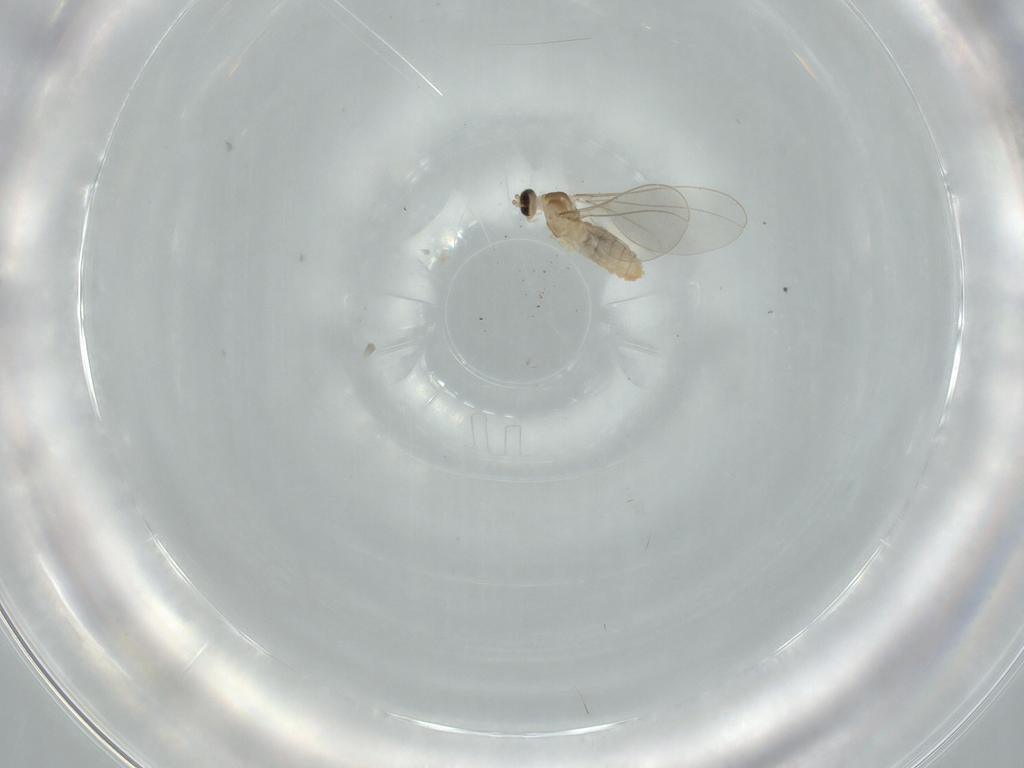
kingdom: Animalia
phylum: Arthropoda
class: Insecta
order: Diptera
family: Cecidomyiidae
